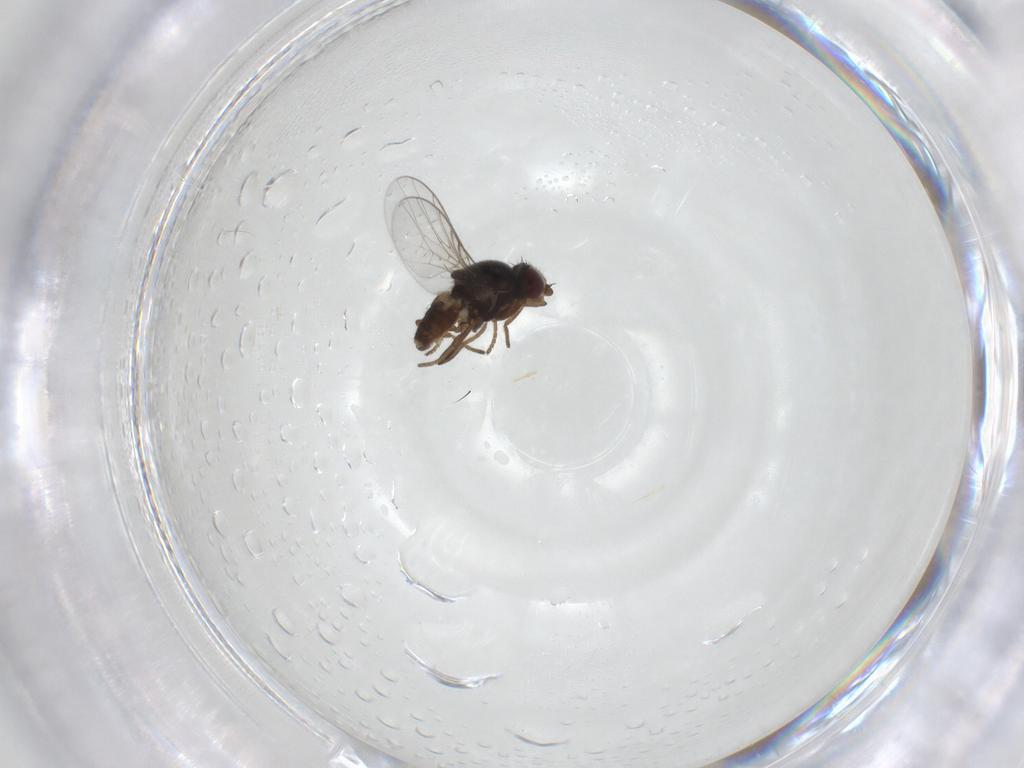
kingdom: Animalia
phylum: Arthropoda
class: Insecta
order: Diptera
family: Chloropidae
